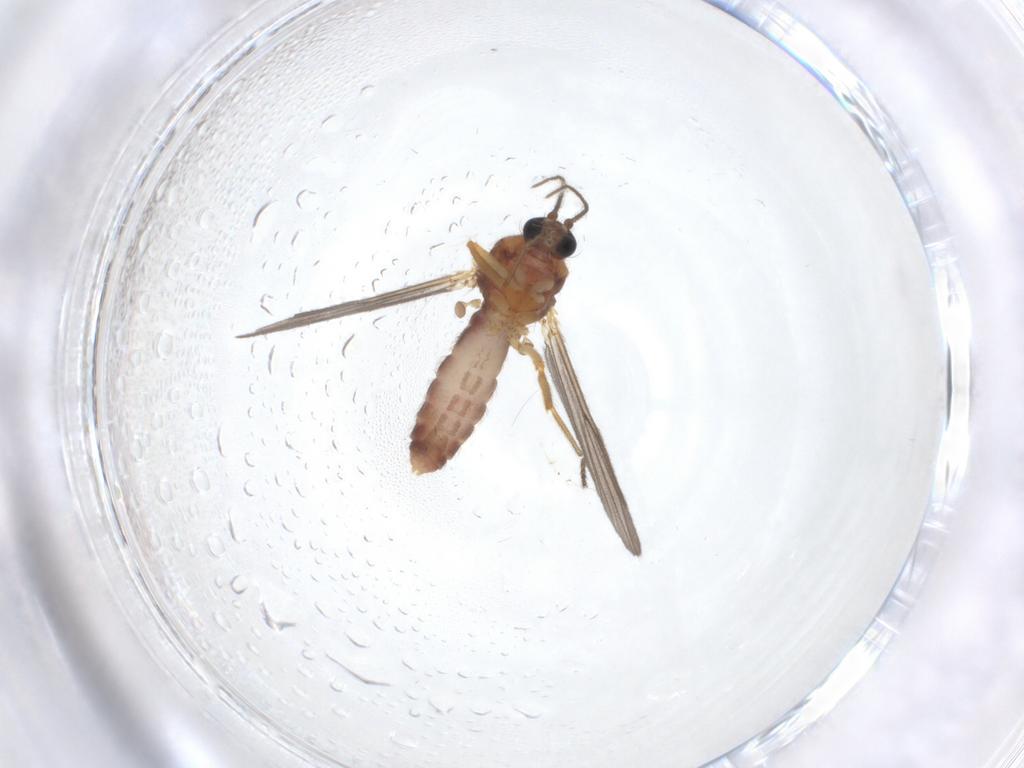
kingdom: Animalia
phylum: Arthropoda
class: Insecta
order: Diptera
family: Ceratopogonidae
